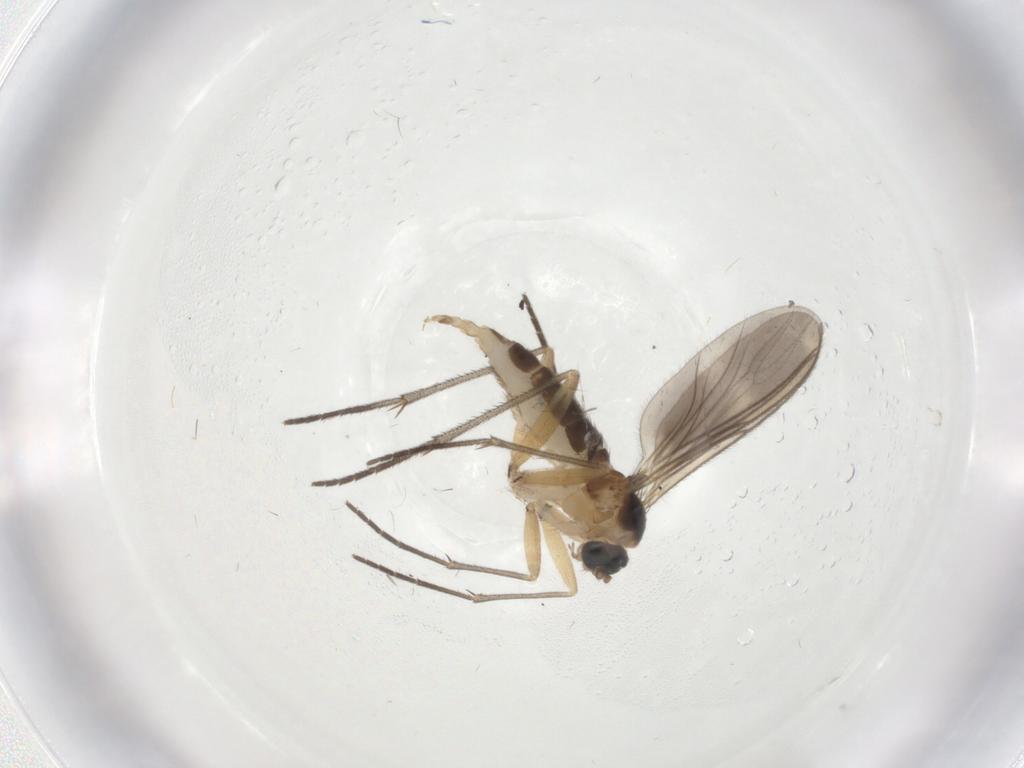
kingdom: Animalia
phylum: Arthropoda
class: Insecta
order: Diptera
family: Sciaridae
